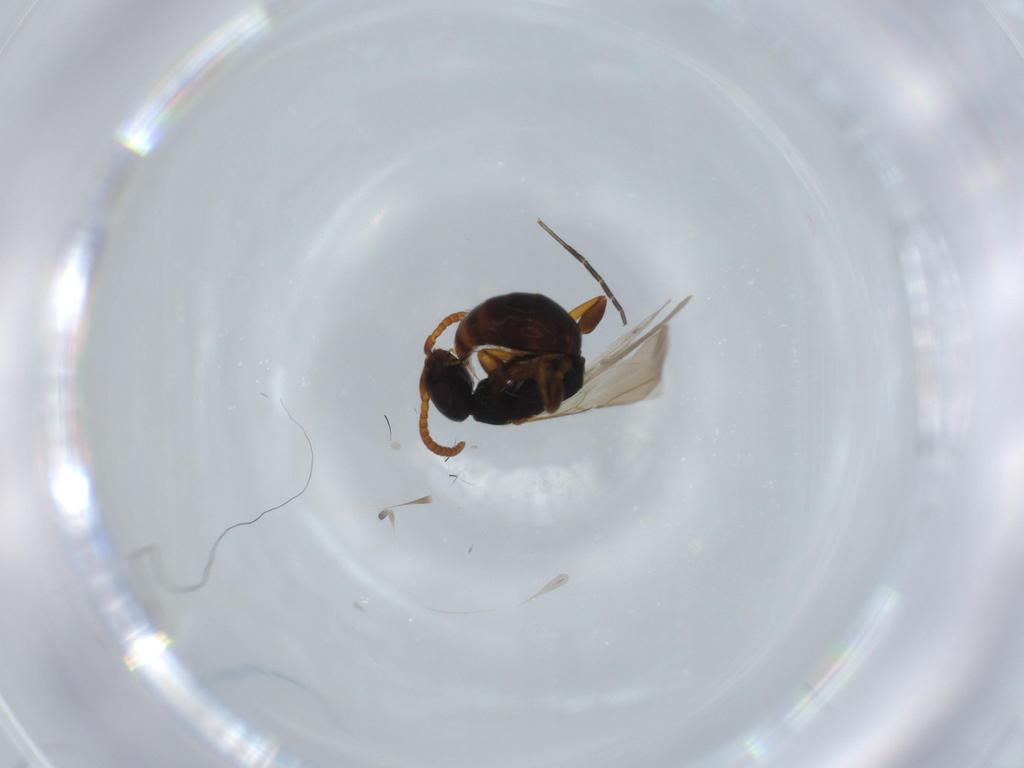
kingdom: Animalia
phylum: Arthropoda
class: Insecta
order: Hymenoptera
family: Bethylidae
